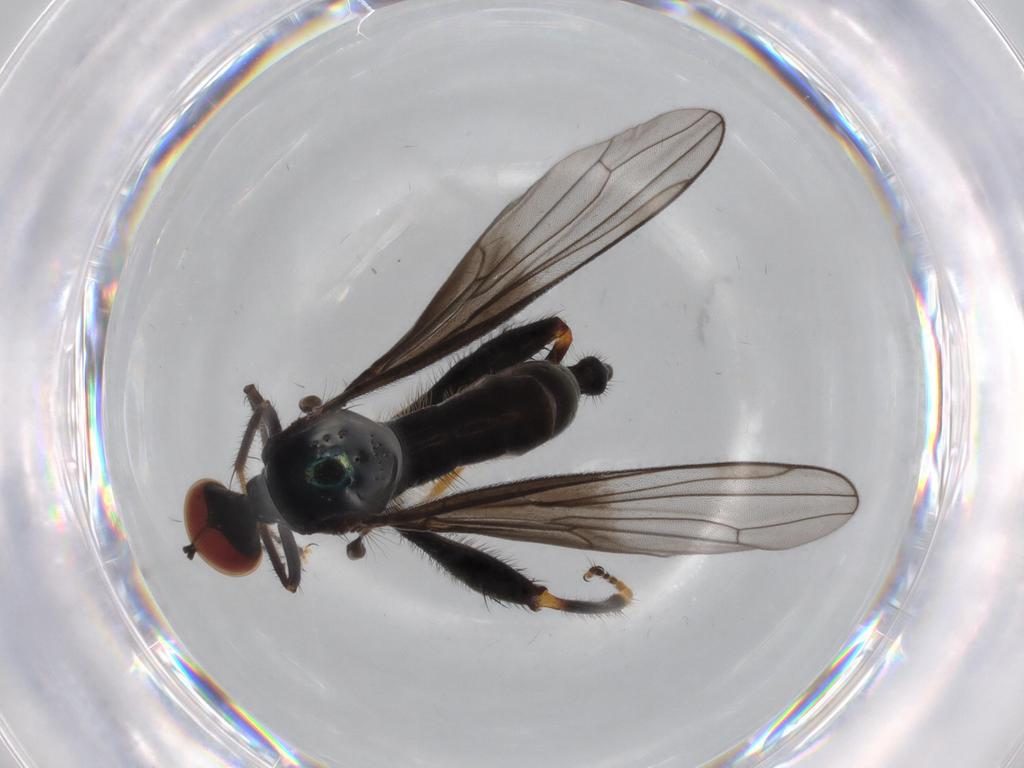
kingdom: Animalia
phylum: Arthropoda
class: Insecta
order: Diptera
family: Hybotidae
